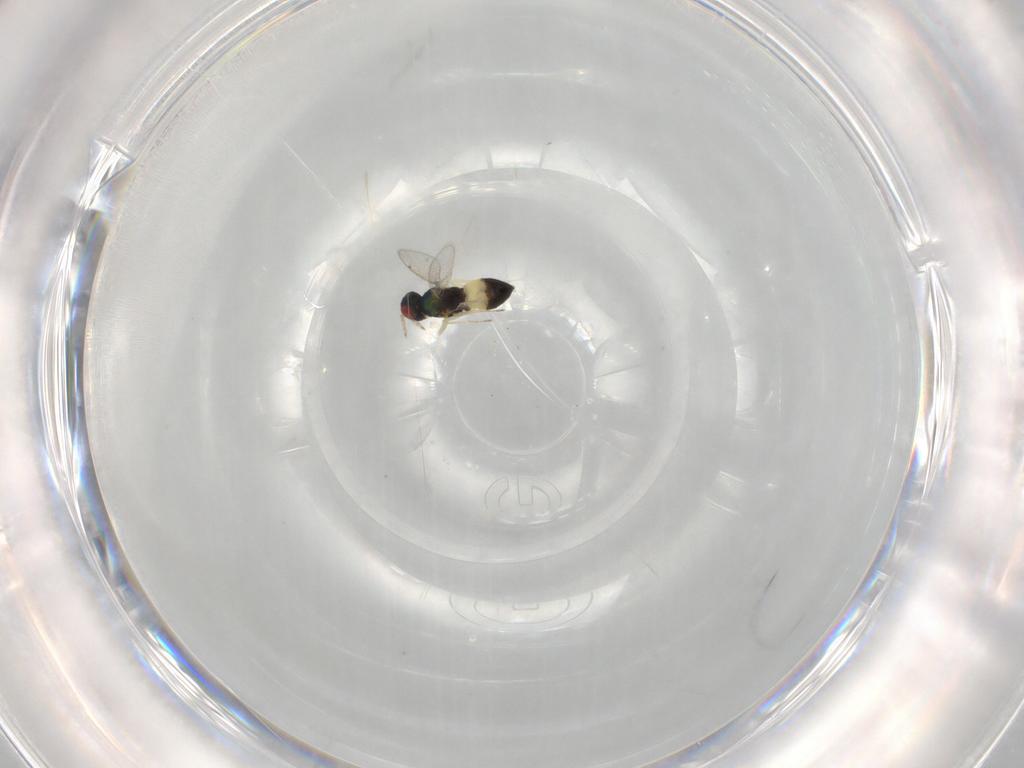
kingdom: Animalia
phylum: Arthropoda
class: Insecta
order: Hymenoptera
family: Eulophidae
